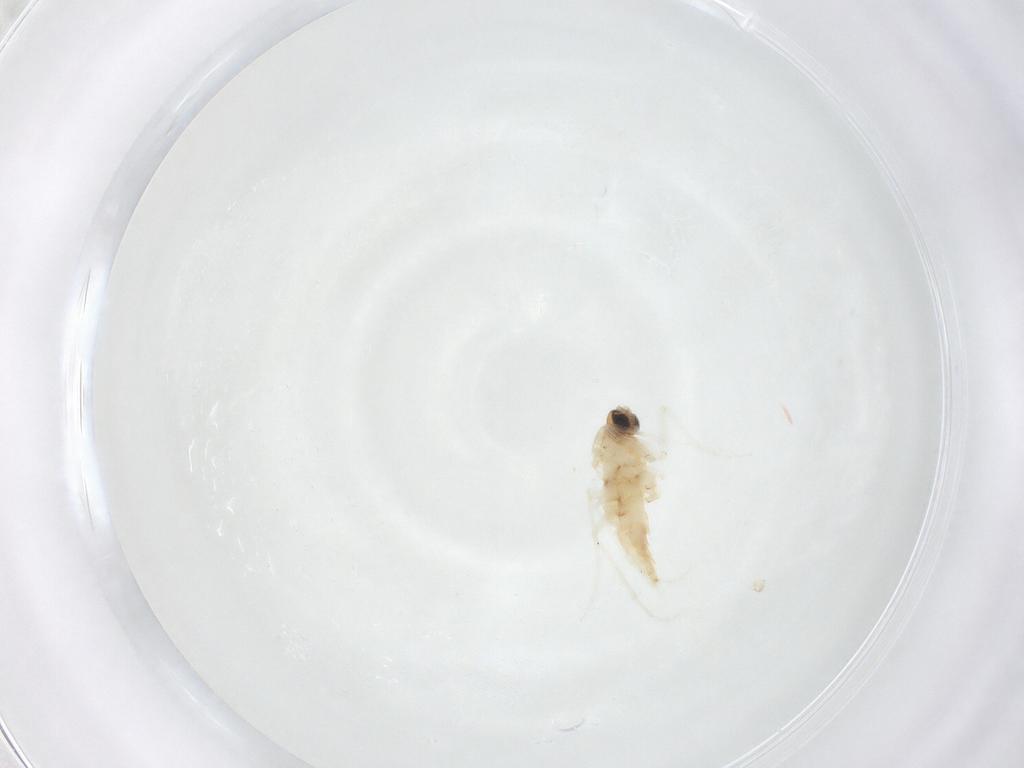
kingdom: Animalia
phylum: Arthropoda
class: Insecta
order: Diptera
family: Sciaridae
